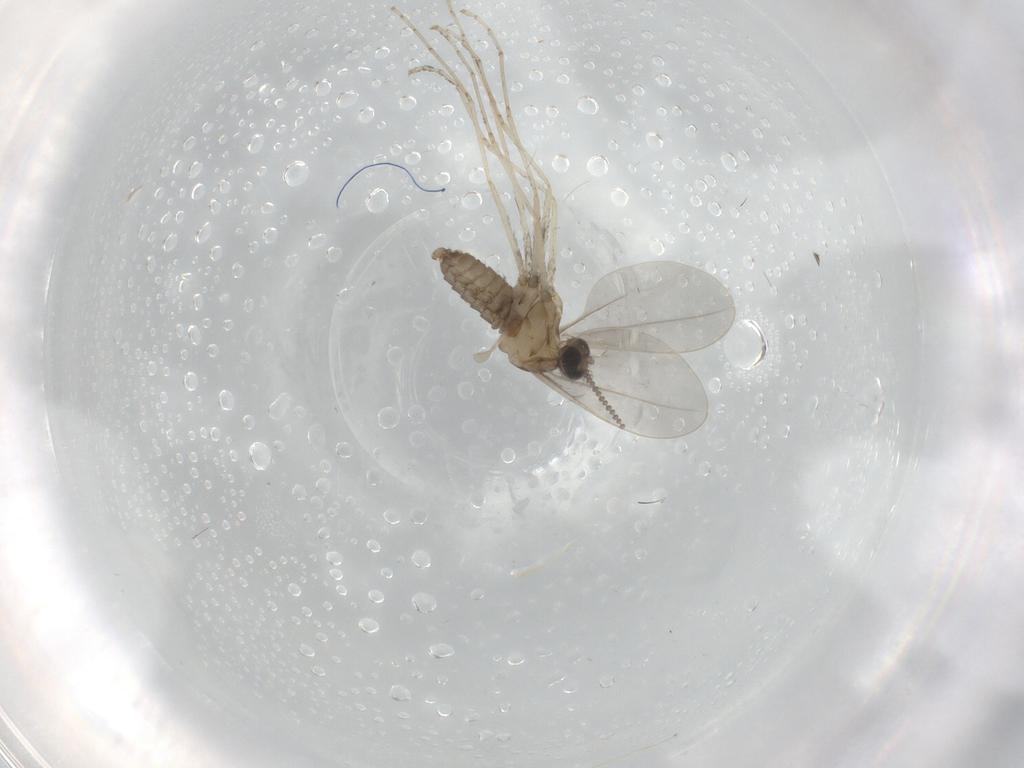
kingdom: Animalia
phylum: Arthropoda
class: Insecta
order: Diptera
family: Cecidomyiidae
